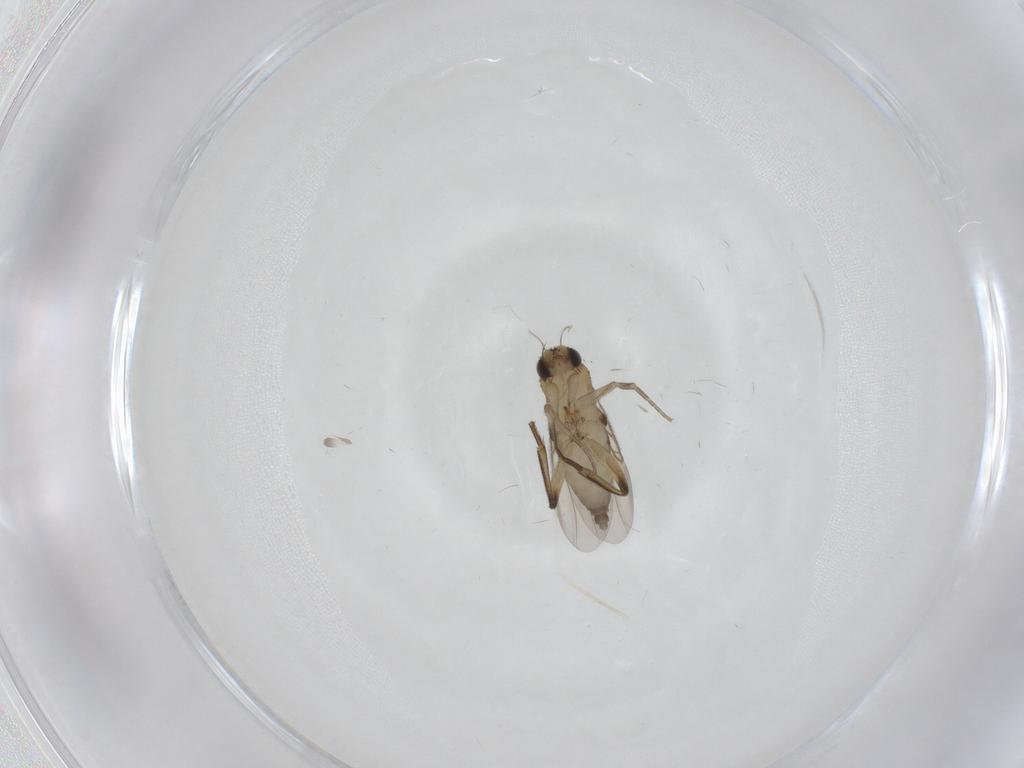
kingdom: Animalia
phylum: Arthropoda
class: Insecta
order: Diptera
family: Phoridae
